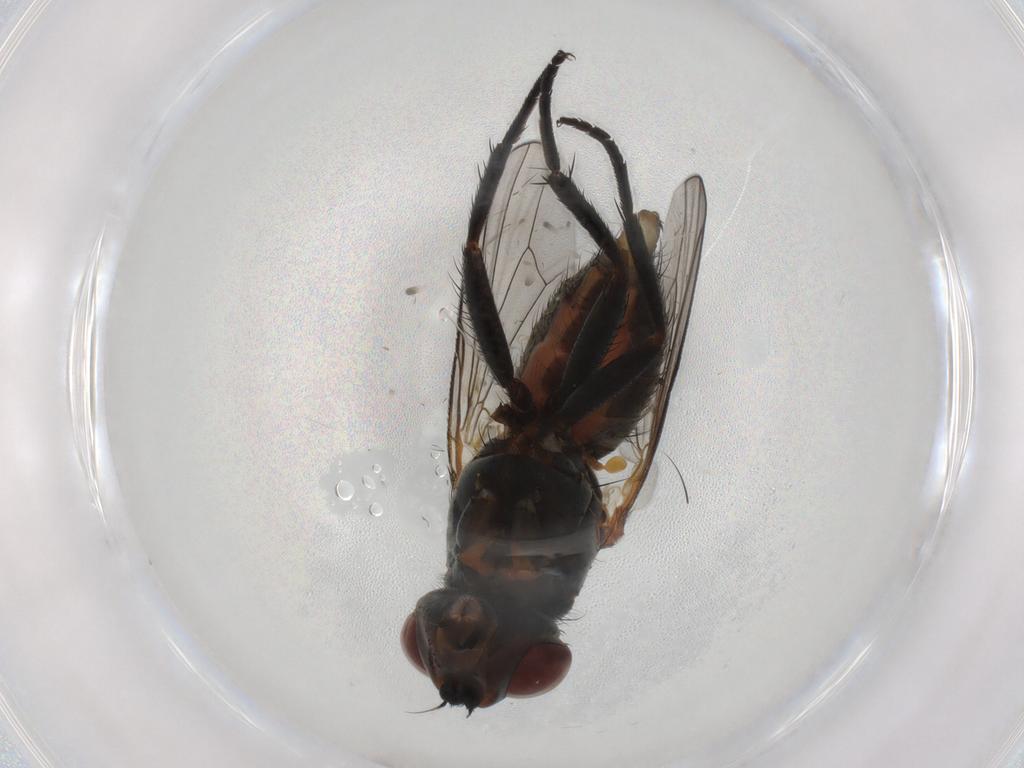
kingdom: Animalia
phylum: Arthropoda
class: Insecta
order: Diptera
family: Anthomyiidae
